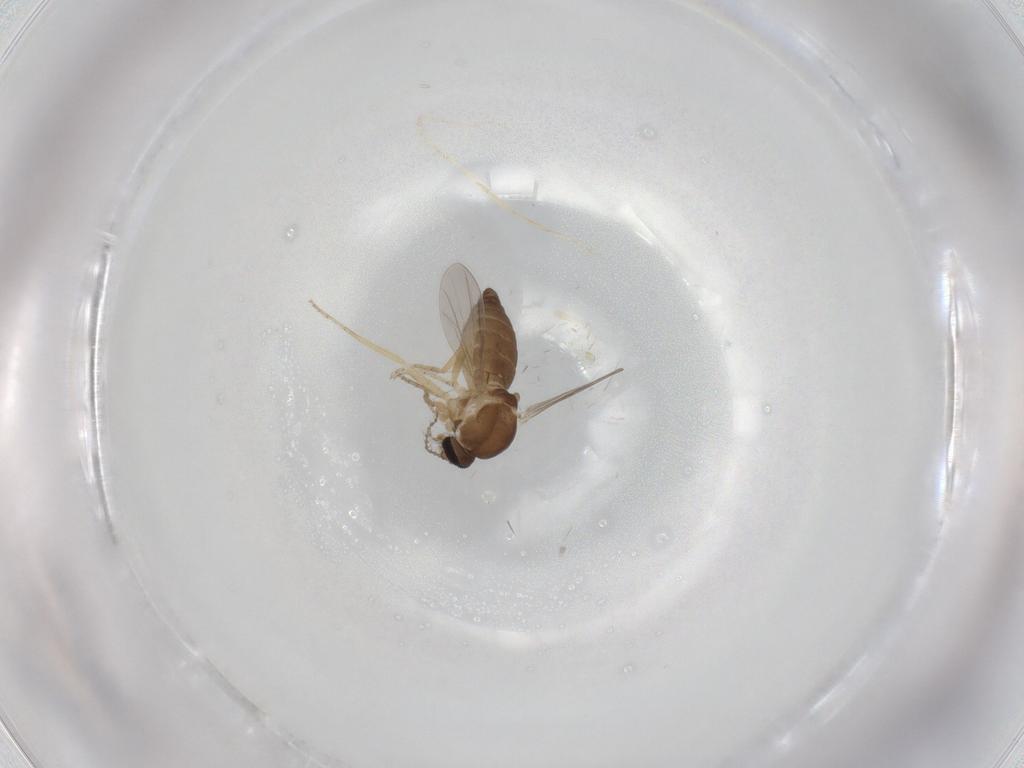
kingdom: Animalia
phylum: Arthropoda
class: Insecta
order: Diptera
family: Ceratopogonidae
